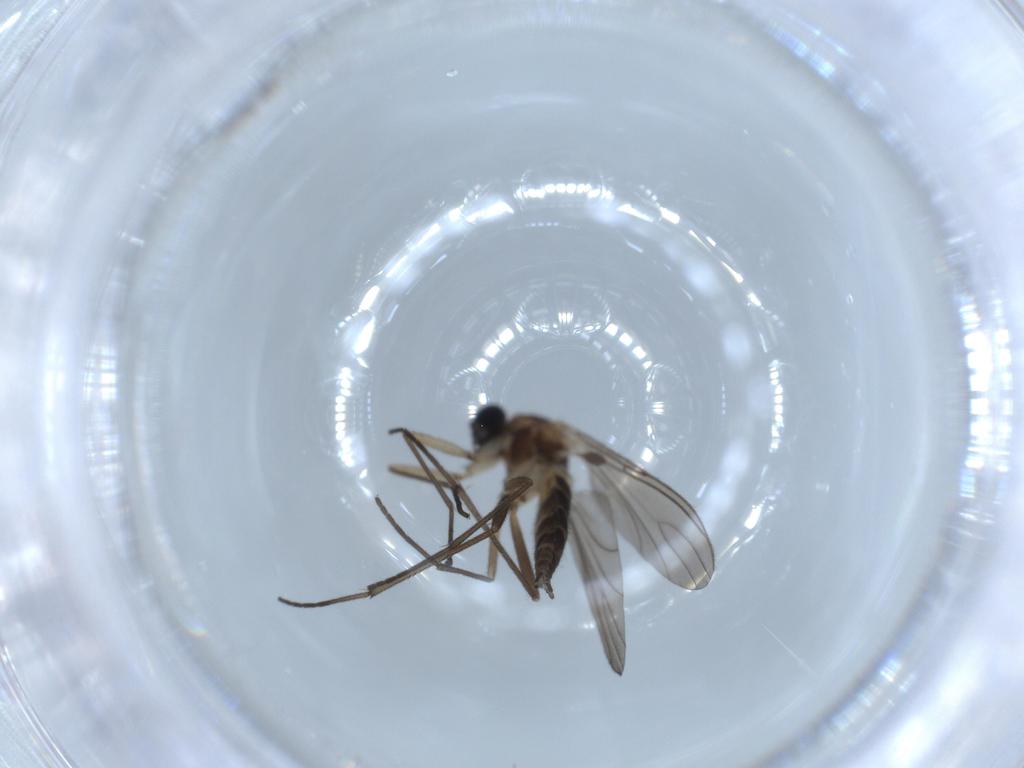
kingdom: Animalia
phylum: Arthropoda
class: Insecta
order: Diptera
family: Sciaridae
